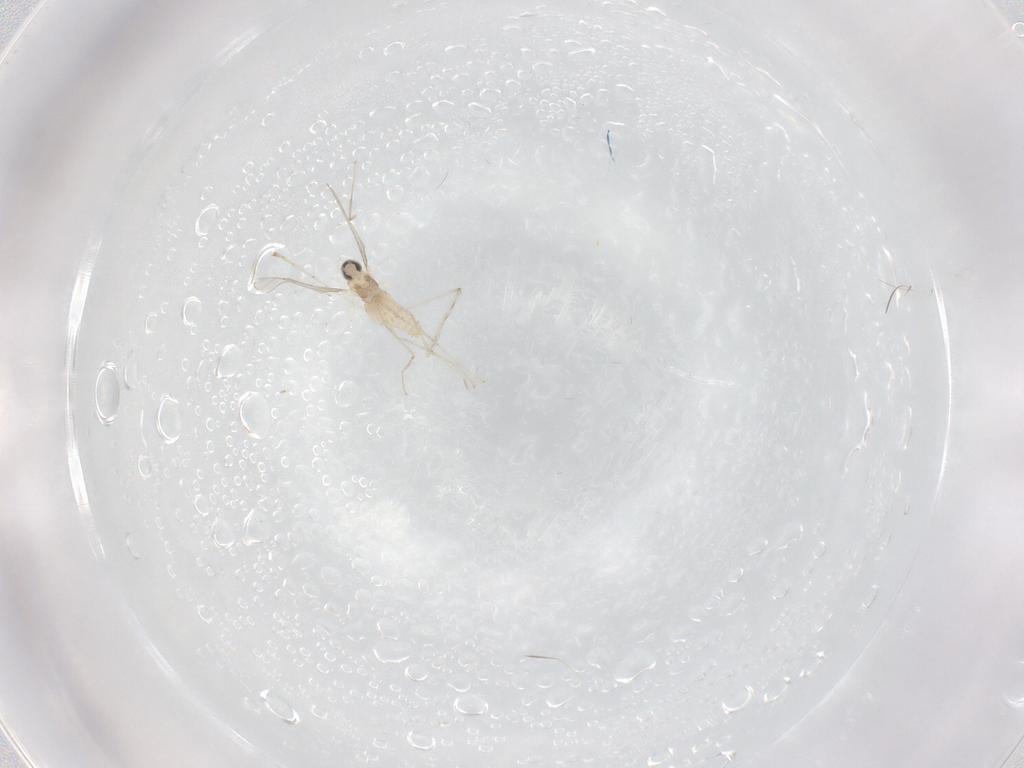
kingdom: Animalia
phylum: Arthropoda
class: Insecta
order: Diptera
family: Cecidomyiidae
